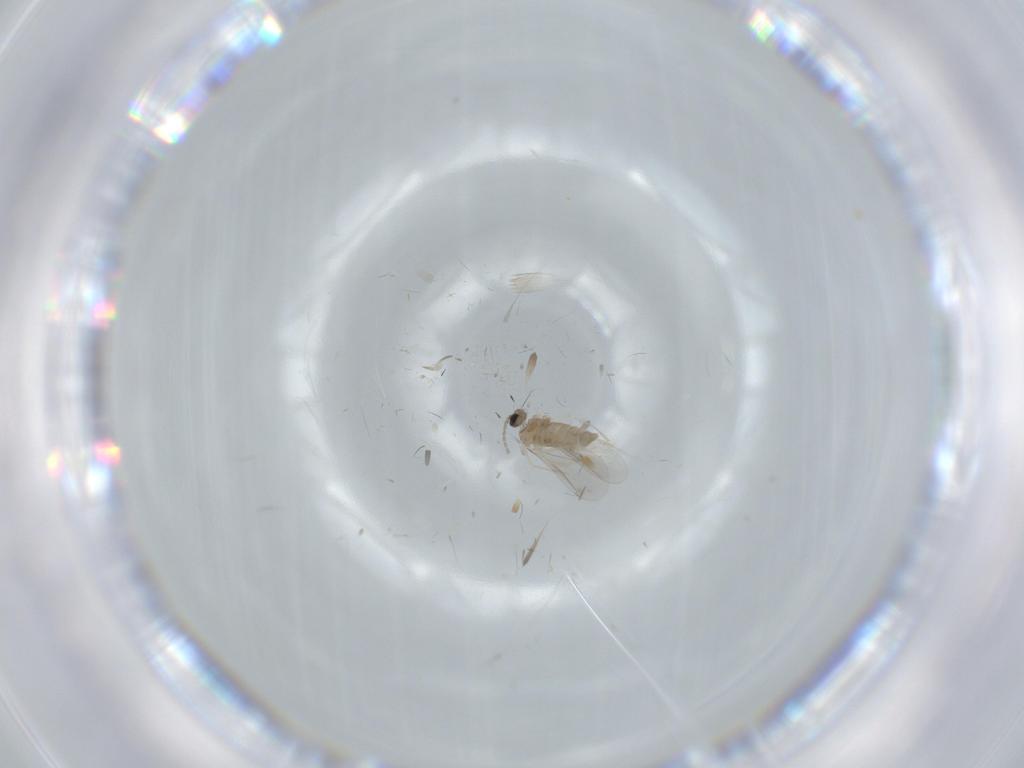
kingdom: Animalia
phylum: Arthropoda
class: Insecta
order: Diptera
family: Cecidomyiidae
